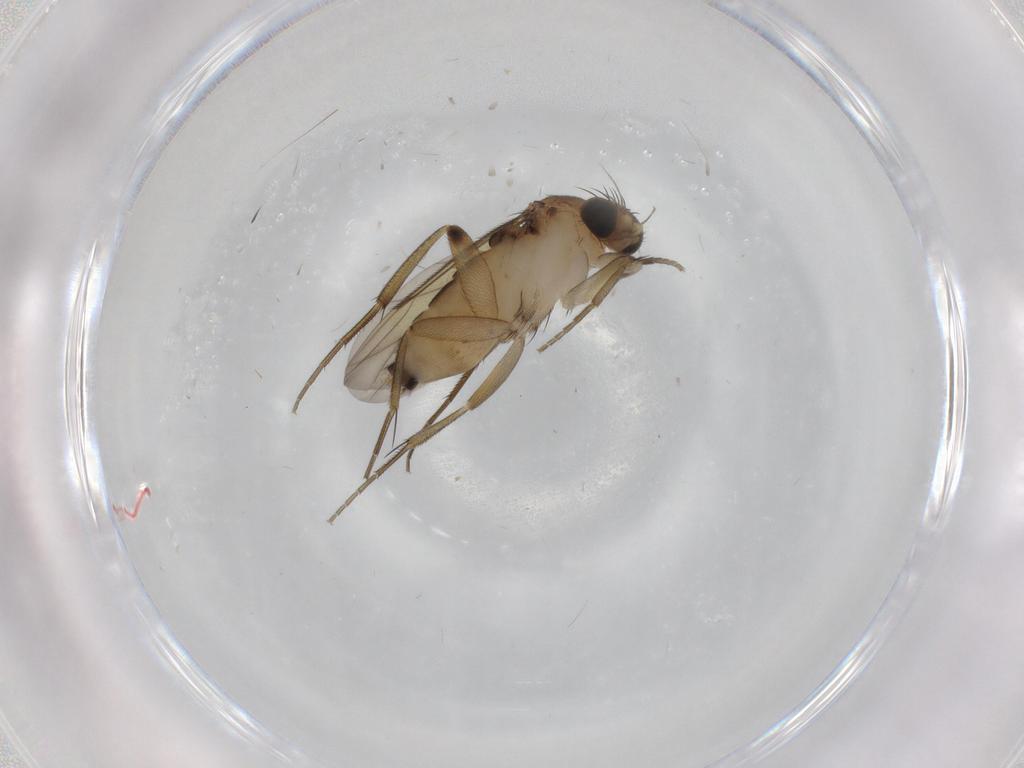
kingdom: Animalia
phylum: Arthropoda
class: Insecta
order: Diptera
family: Phoridae
